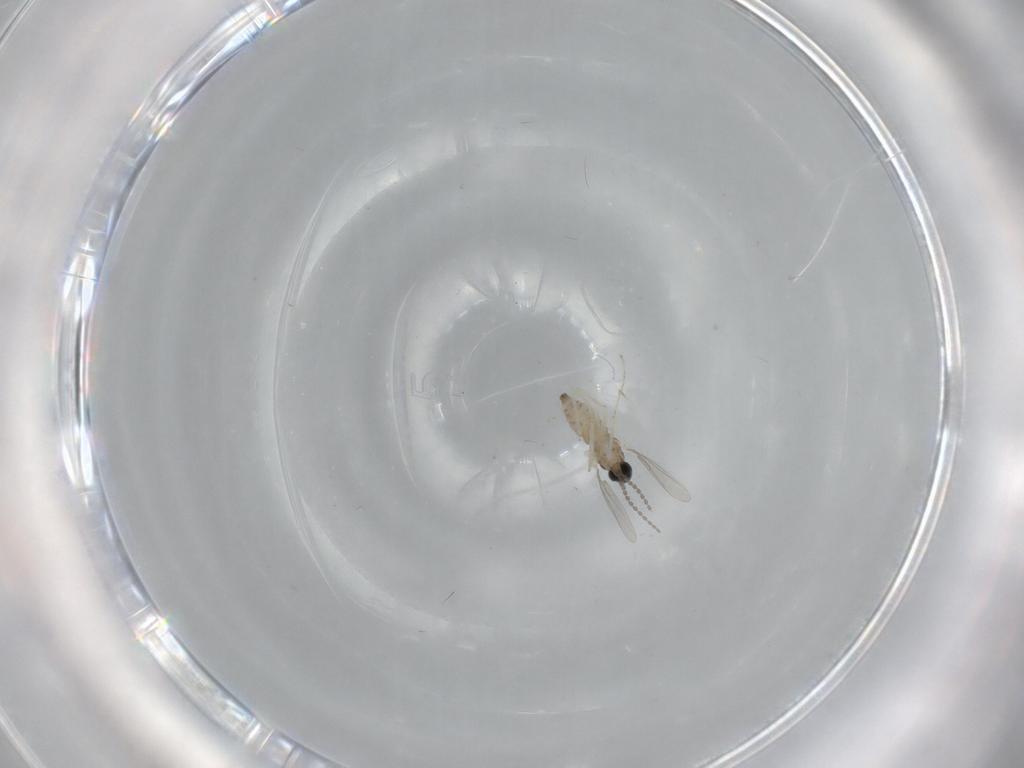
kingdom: Animalia
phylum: Arthropoda
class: Insecta
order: Diptera
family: Cecidomyiidae
